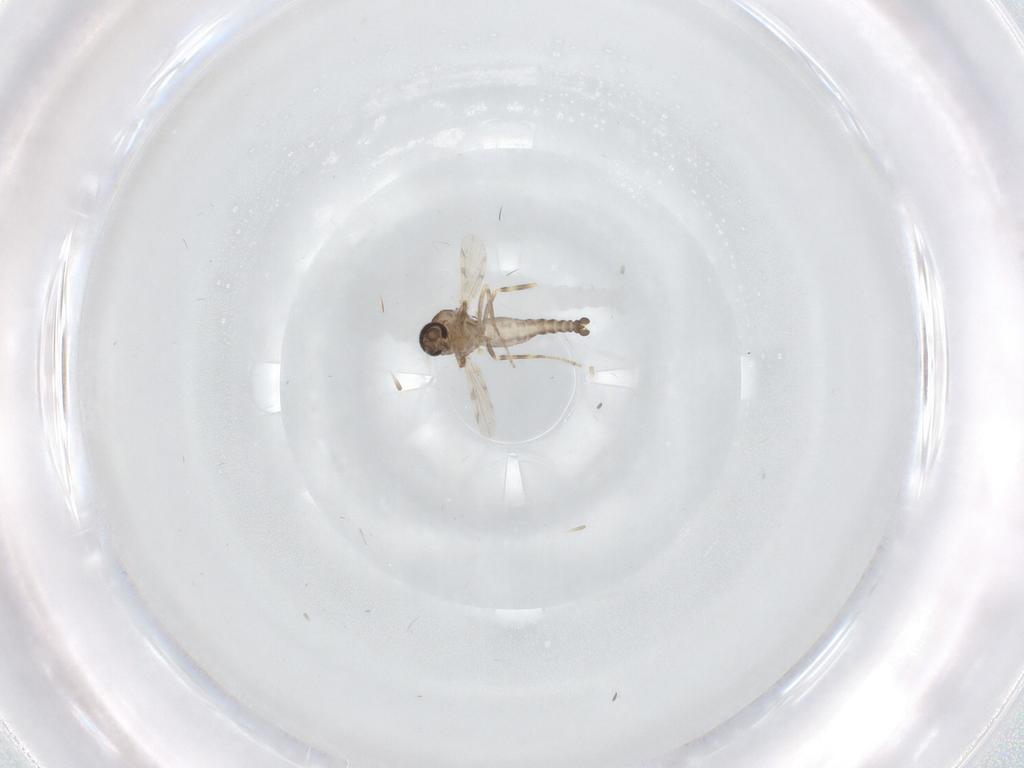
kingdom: Animalia
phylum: Arthropoda
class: Insecta
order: Diptera
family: Ceratopogonidae
